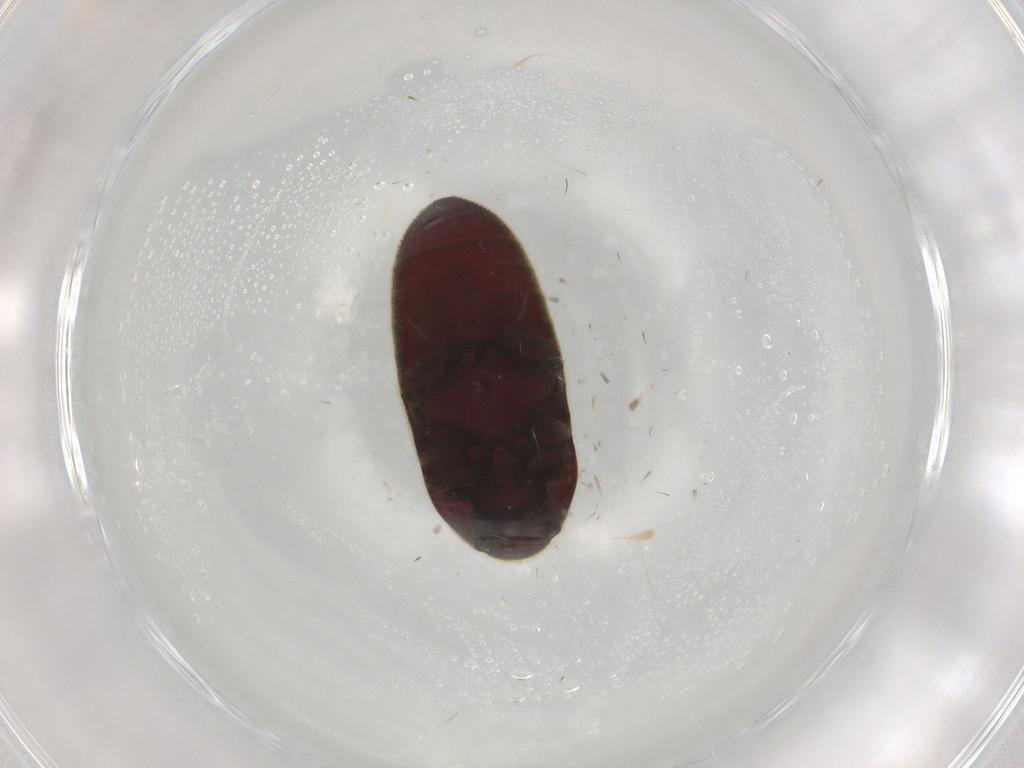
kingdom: Animalia
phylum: Arthropoda
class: Insecta
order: Coleoptera
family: Throscidae
